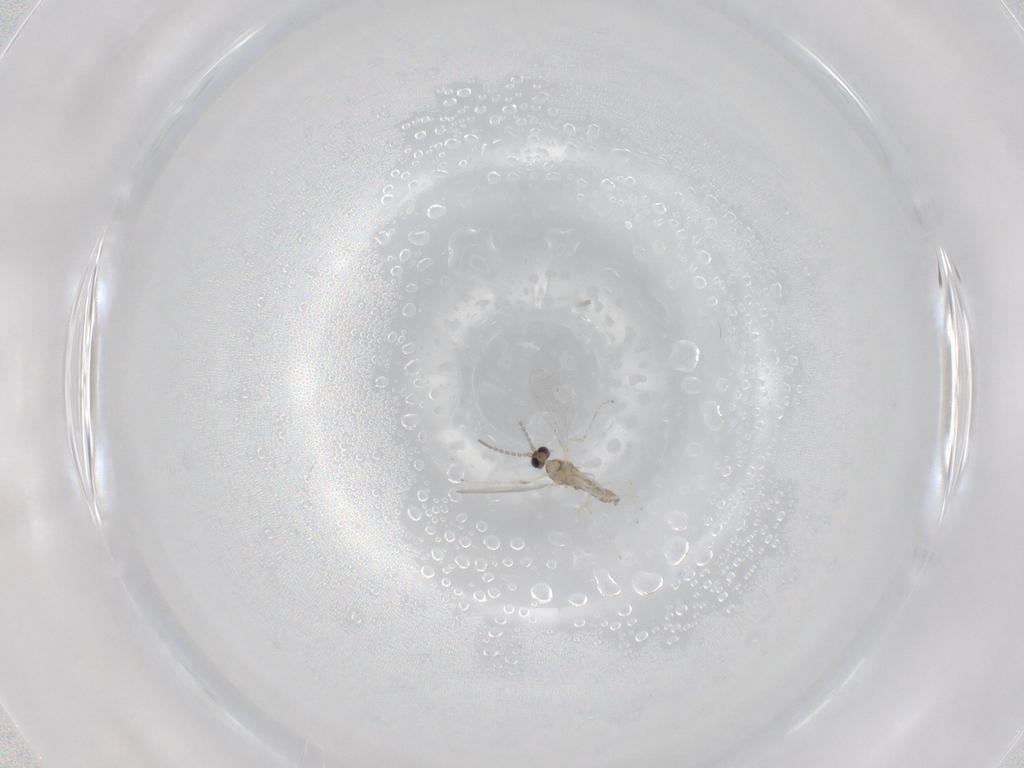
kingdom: Animalia
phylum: Arthropoda
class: Insecta
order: Diptera
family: Cecidomyiidae
